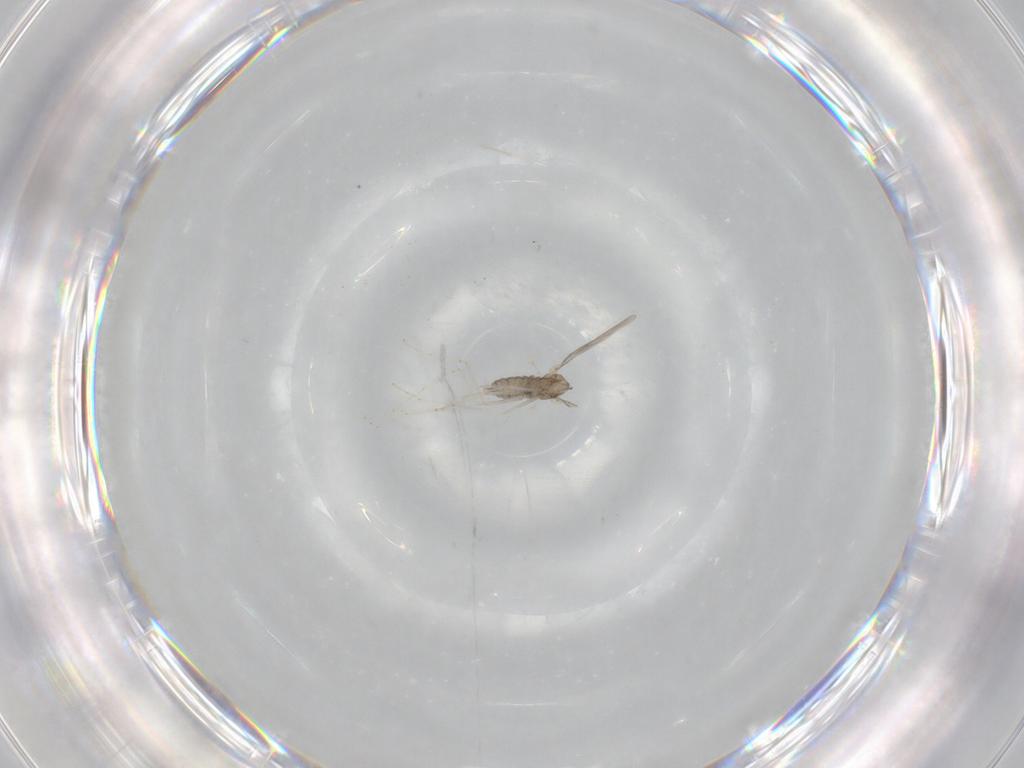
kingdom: Animalia
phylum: Arthropoda
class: Insecta
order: Diptera
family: Cecidomyiidae
